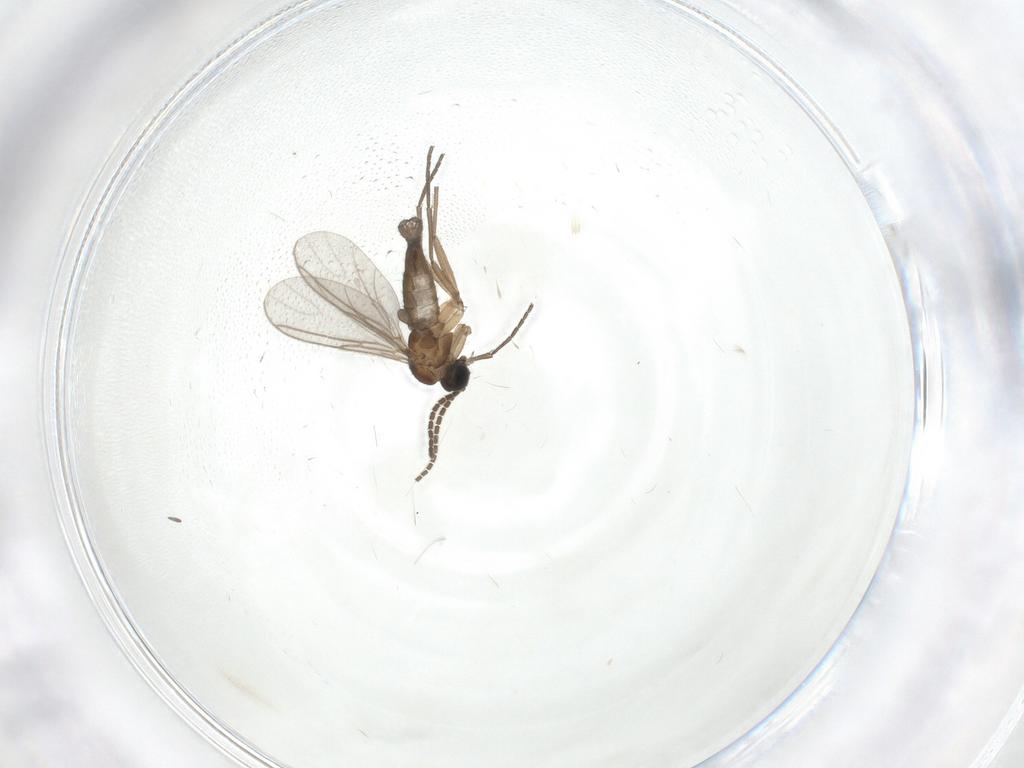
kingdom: Animalia
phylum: Arthropoda
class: Insecta
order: Diptera
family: Sciaridae
